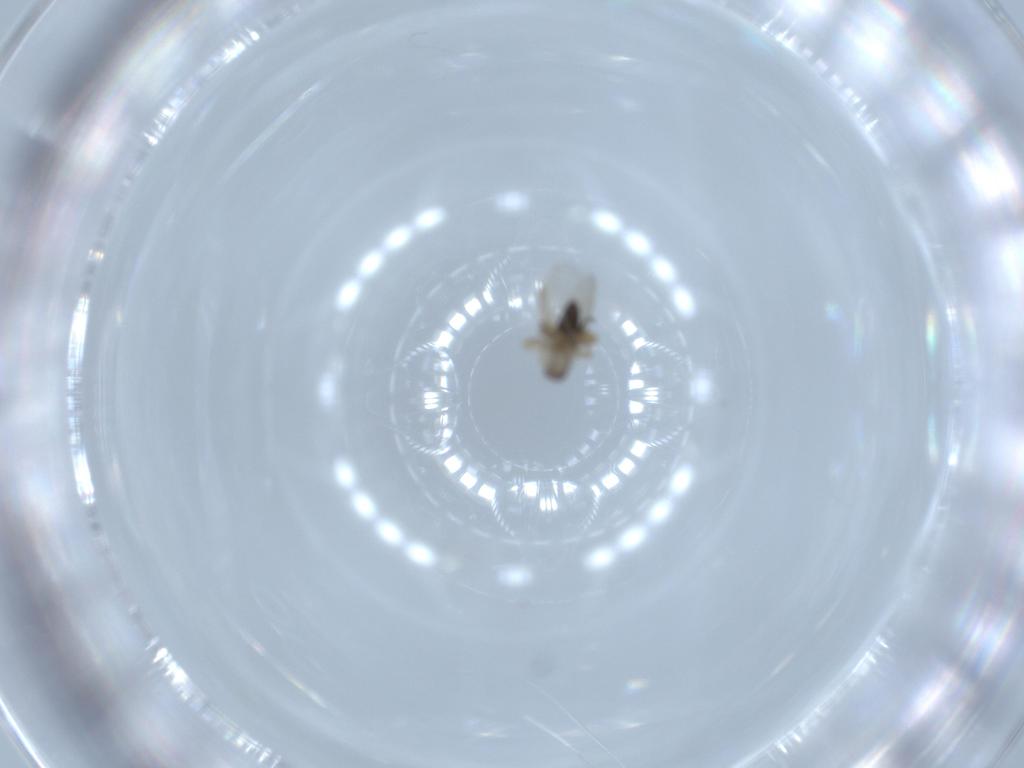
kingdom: Animalia
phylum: Arthropoda
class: Insecta
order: Diptera
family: Phoridae
